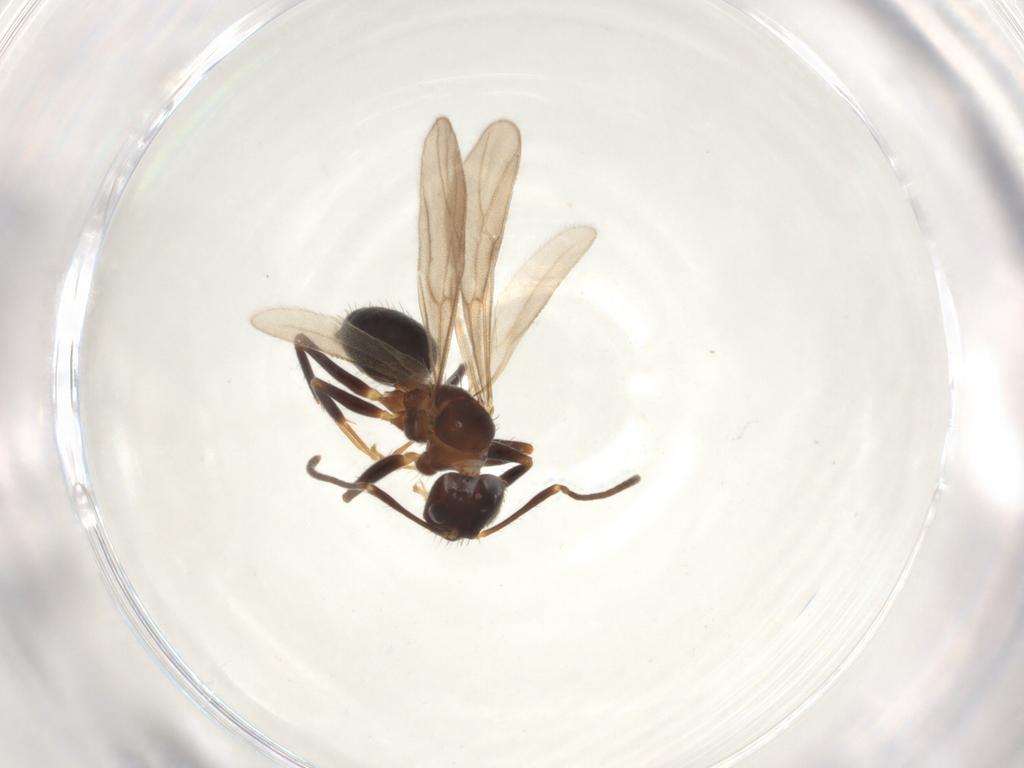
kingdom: Animalia
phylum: Arthropoda
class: Insecta
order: Hymenoptera
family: Formicidae
